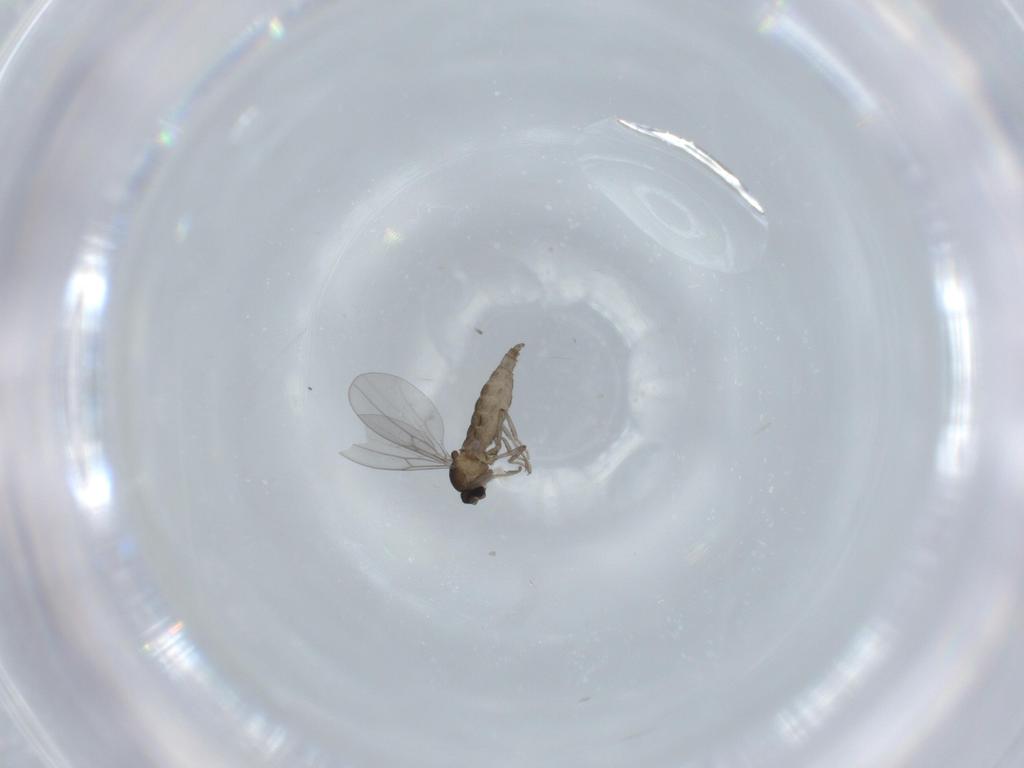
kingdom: Animalia
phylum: Arthropoda
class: Insecta
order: Diptera
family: Cecidomyiidae
